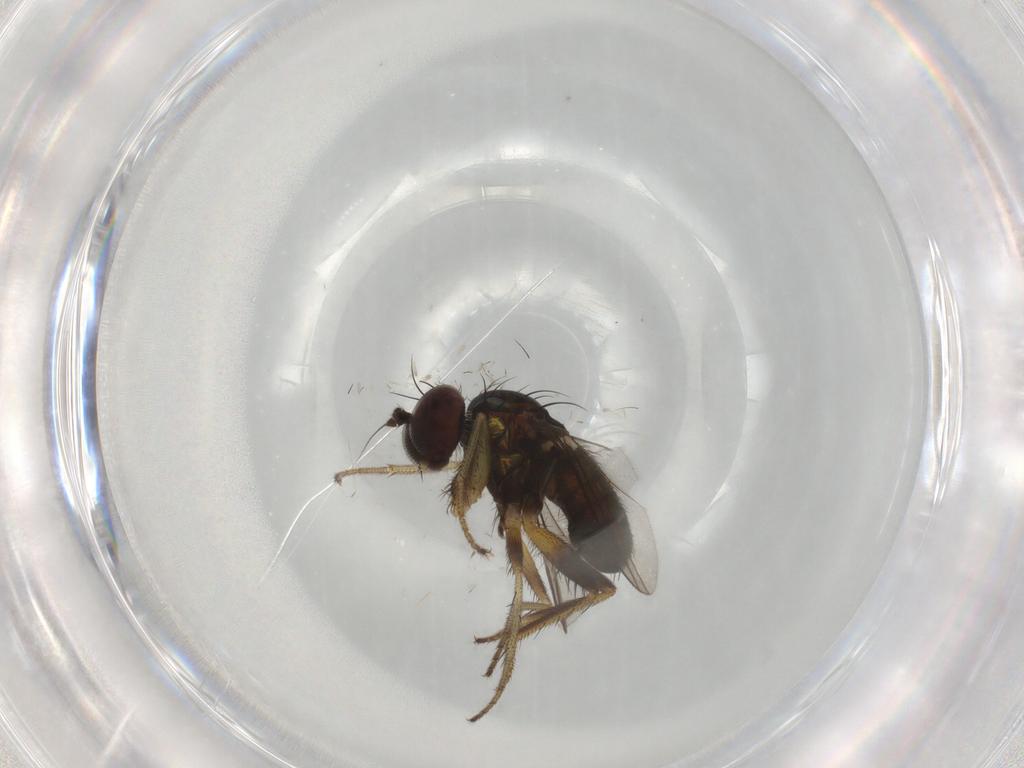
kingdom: Animalia
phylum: Arthropoda
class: Insecta
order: Diptera
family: Dolichopodidae
